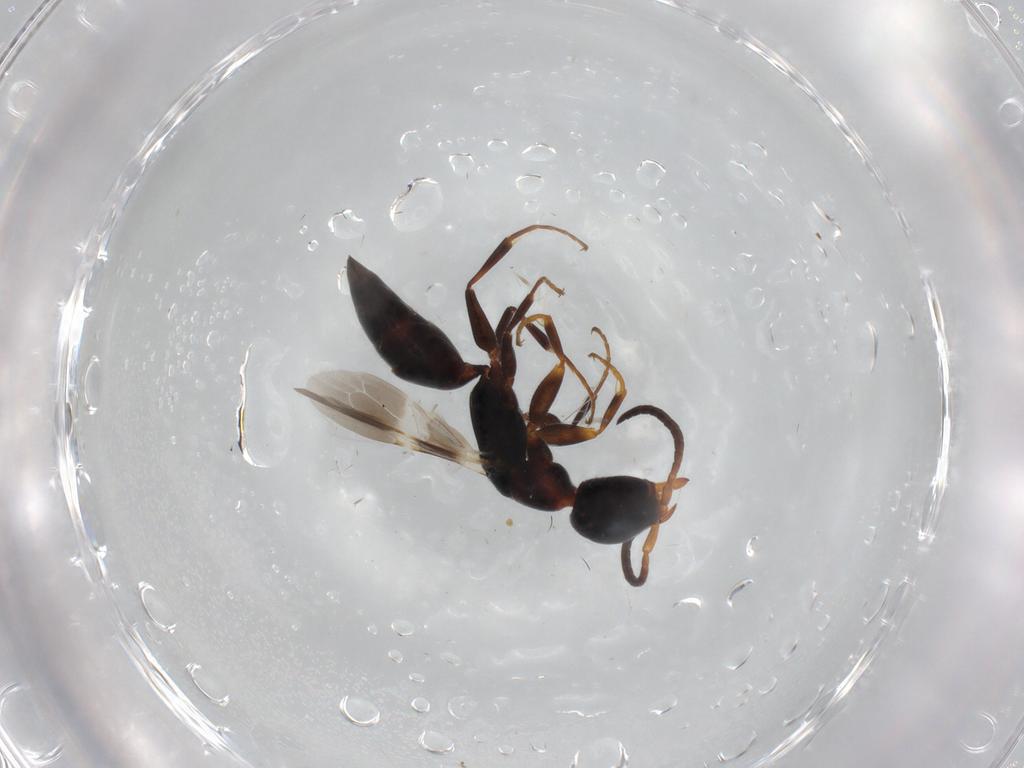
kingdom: Animalia
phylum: Arthropoda
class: Insecta
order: Hymenoptera
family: Bethylidae
